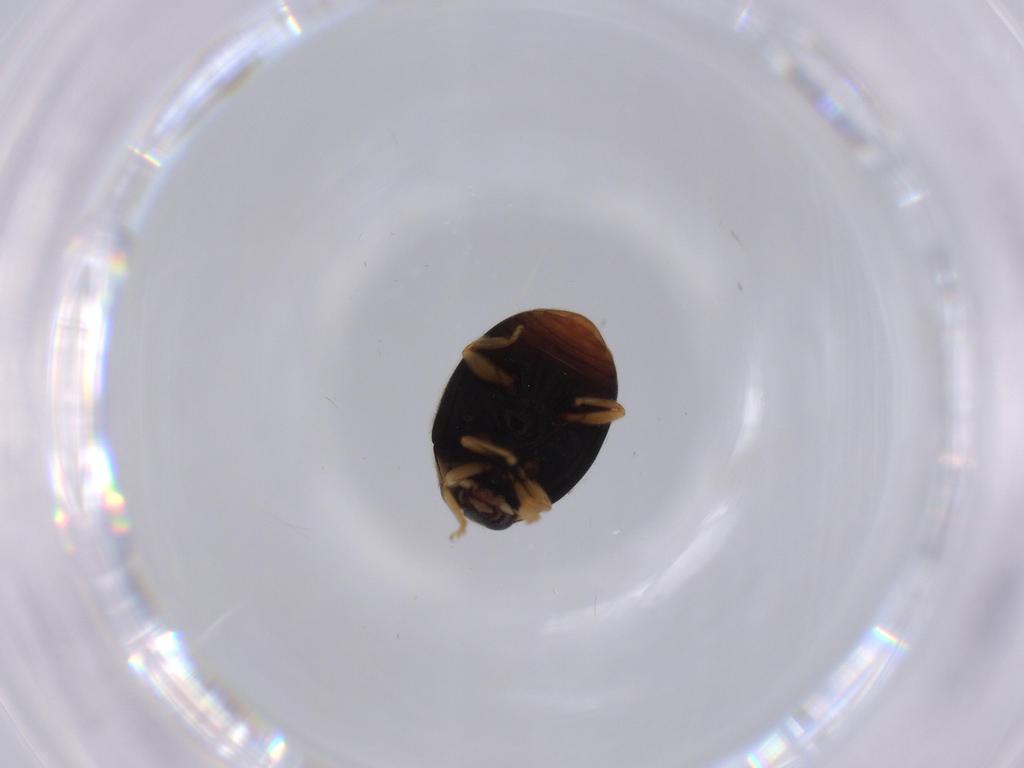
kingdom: Animalia
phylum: Arthropoda
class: Insecta
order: Coleoptera
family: Coccinellidae
